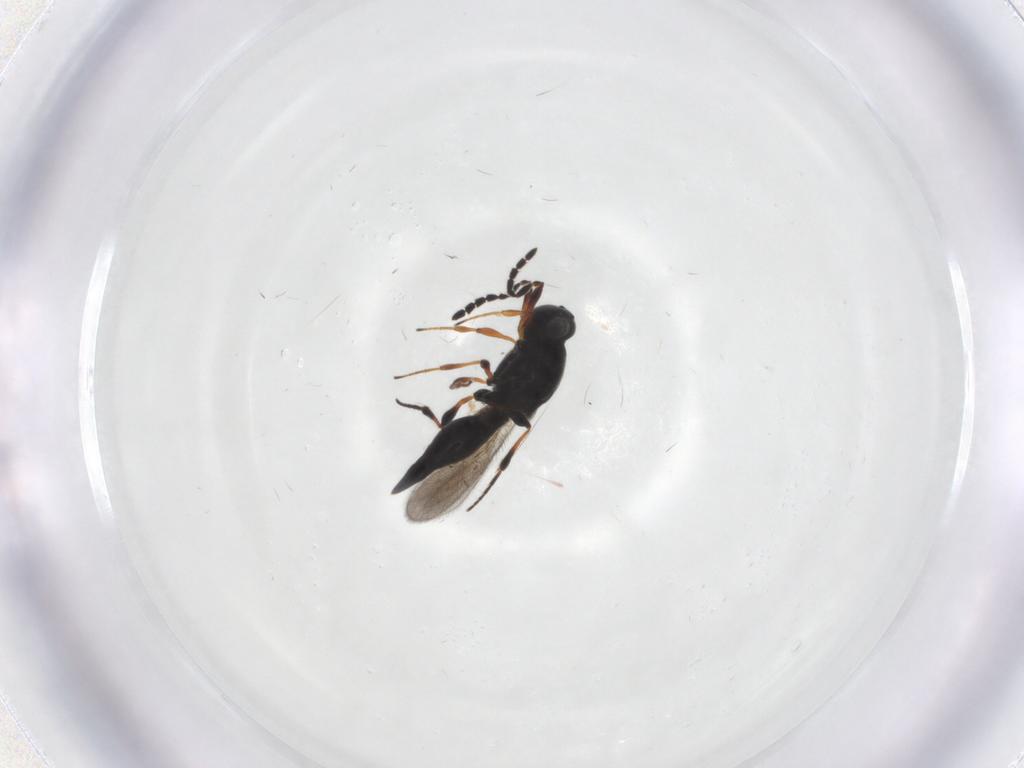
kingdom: Animalia
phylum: Arthropoda
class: Insecta
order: Hymenoptera
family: Platygastridae
